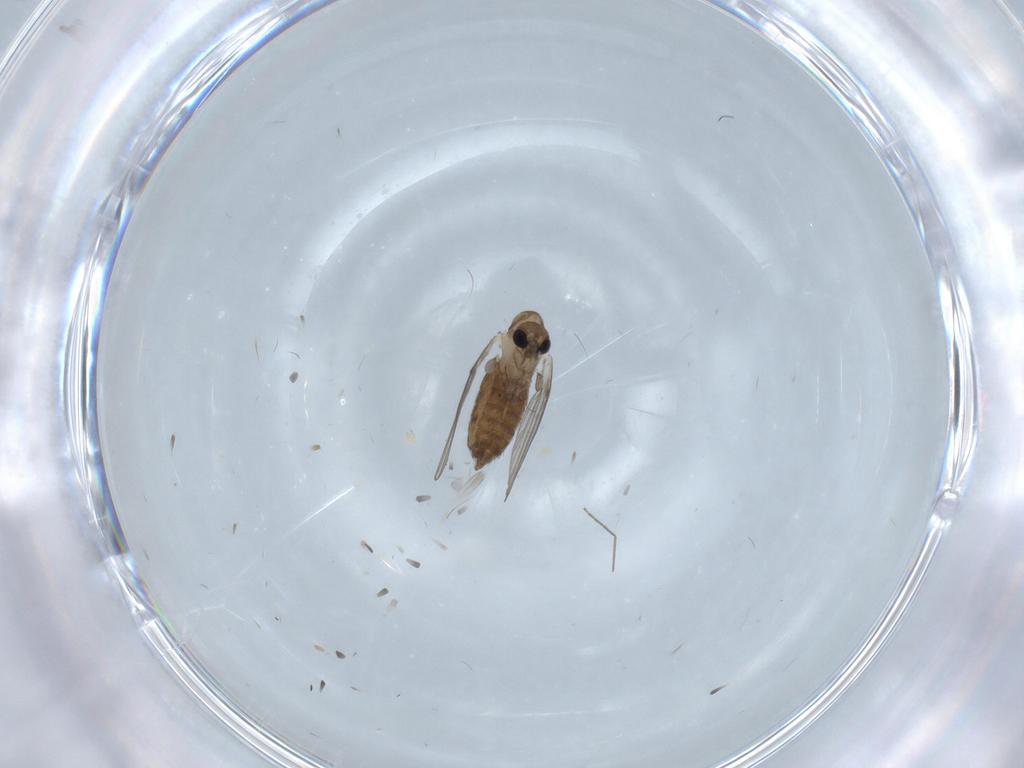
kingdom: Animalia
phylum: Arthropoda
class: Insecta
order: Diptera
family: Psychodidae
